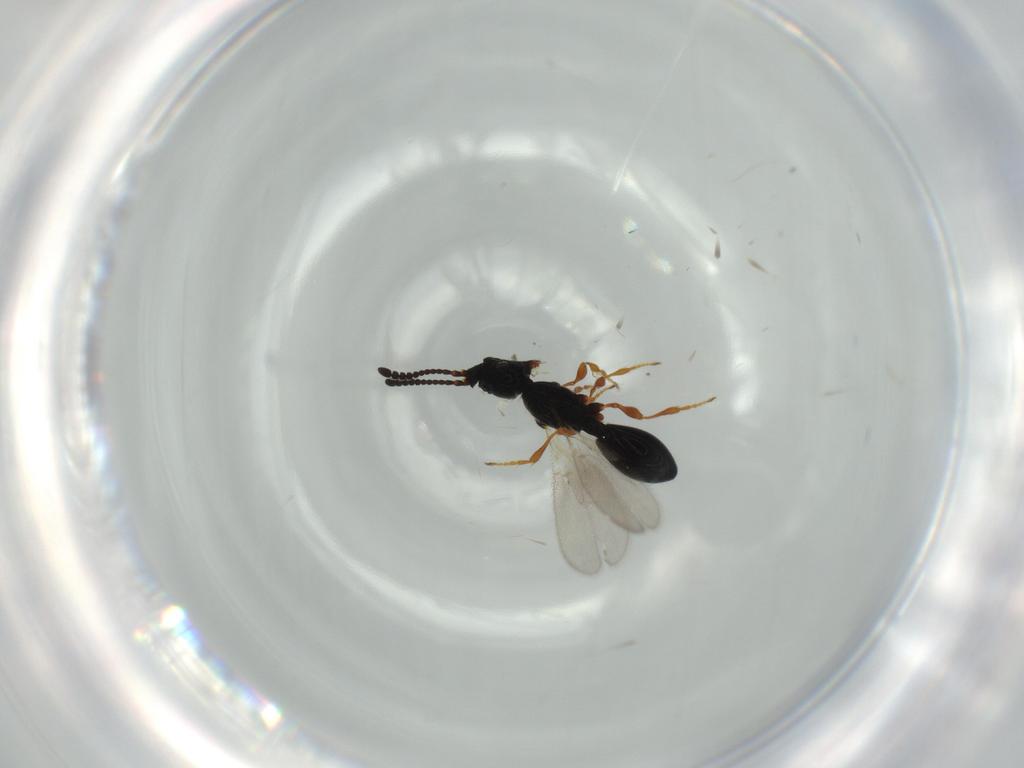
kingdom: Animalia
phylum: Arthropoda
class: Insecta
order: Hymenoptera
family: Diapriidae
